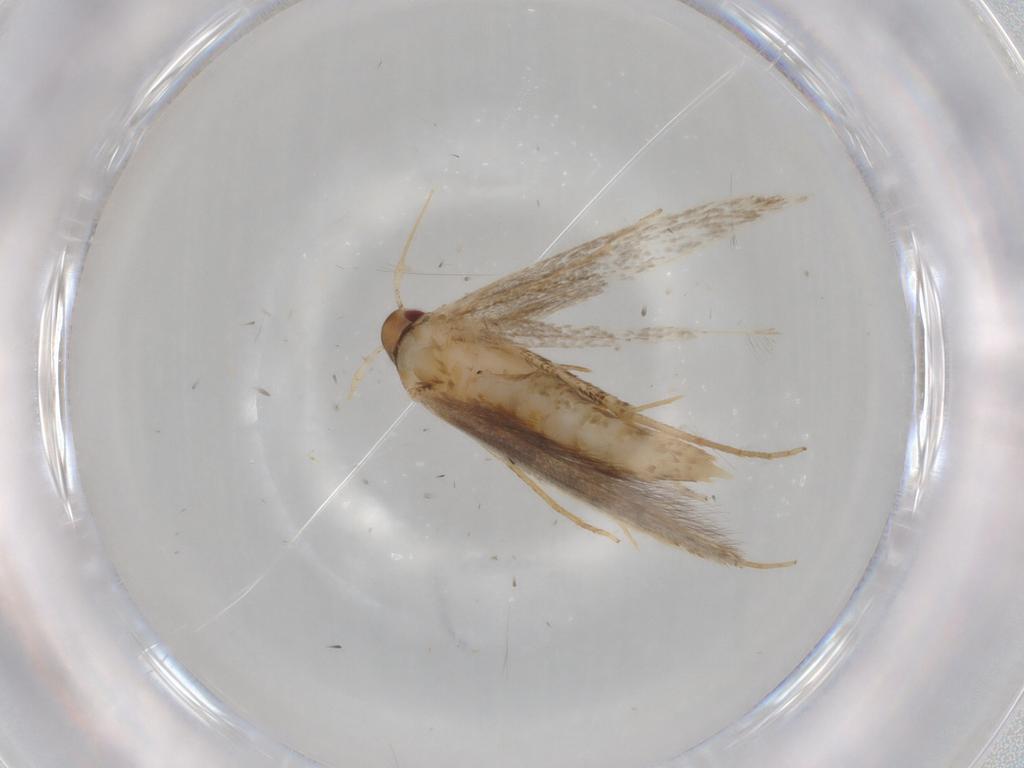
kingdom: Animalia
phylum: Arthropoda
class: Insecta
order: Lepidoptera
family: Cosmopterigidae
